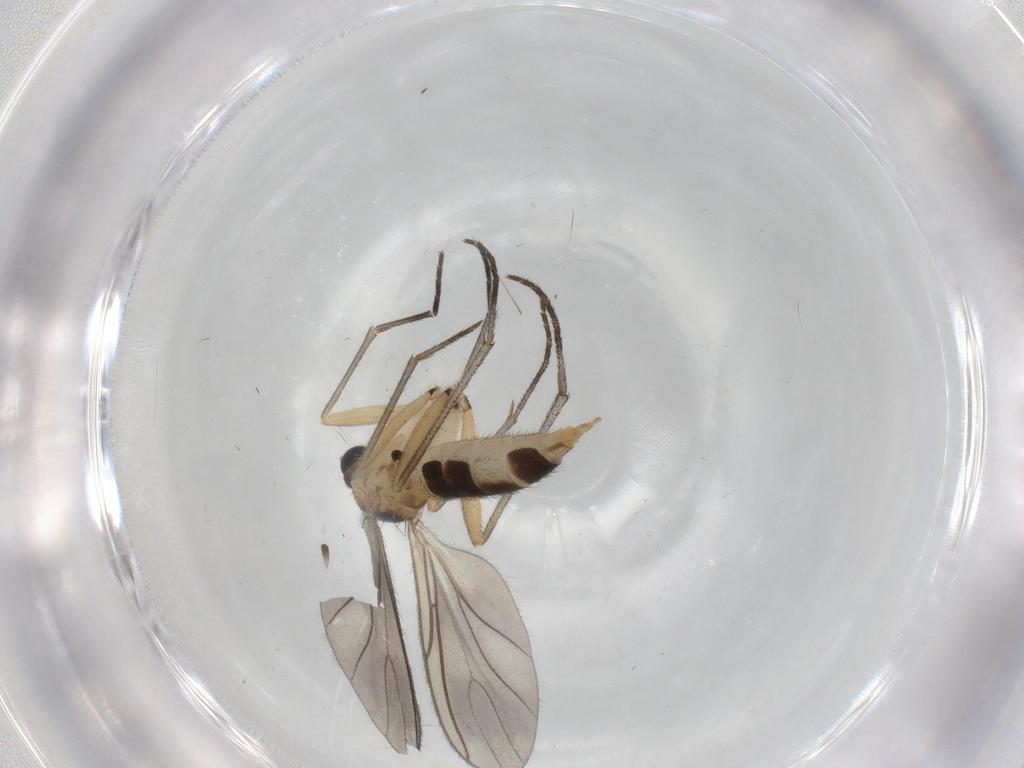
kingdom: Animalia
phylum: Arthropoda
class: Insecta
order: Diptera
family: Sciaridae
